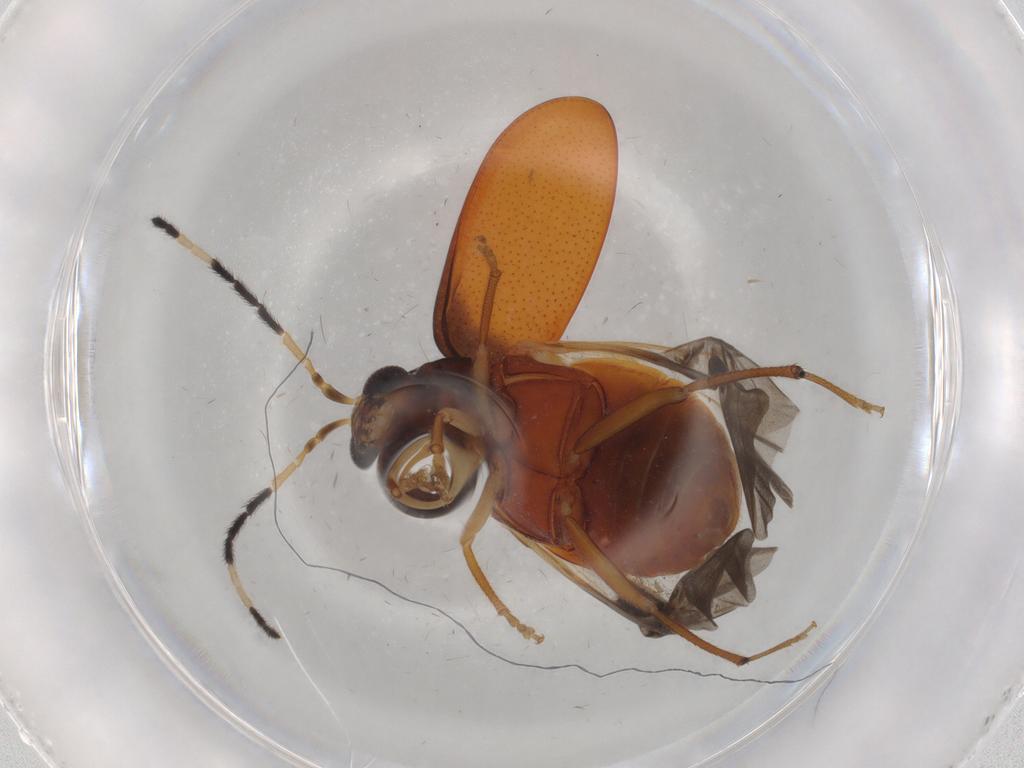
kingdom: Animalia
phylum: Arthropoda
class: Insecta
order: Coleoptera
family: Chrysomelidae
